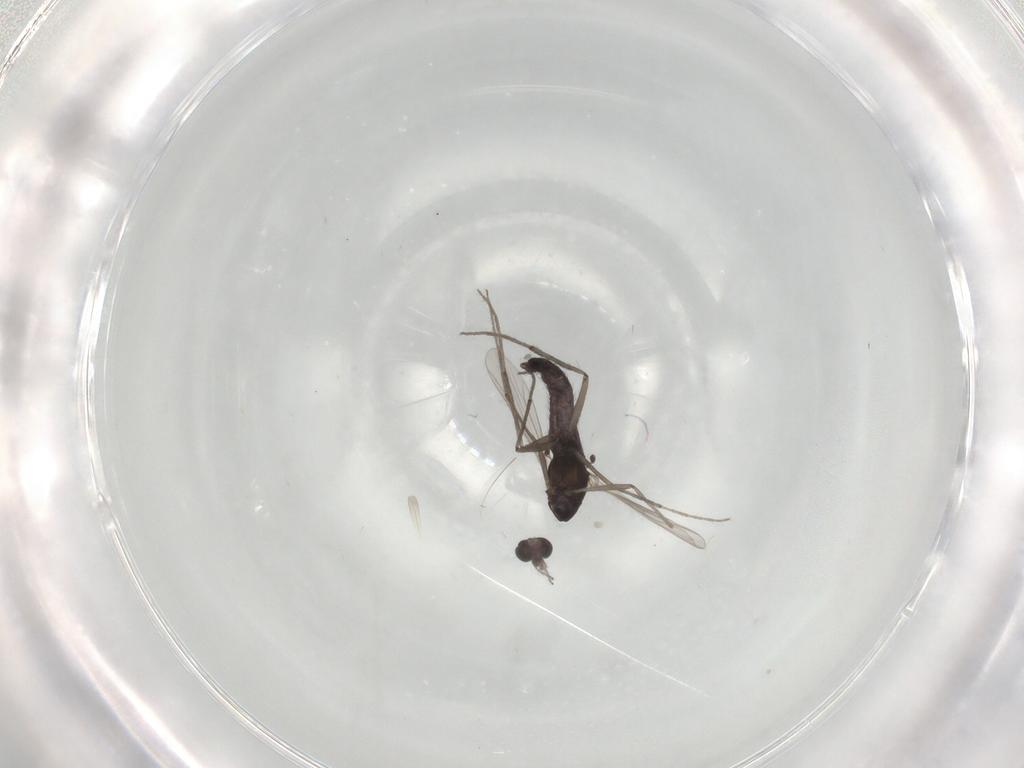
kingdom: Animalia
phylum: Arthropoda
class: Insecta
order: Diptera
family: Chironomidae
